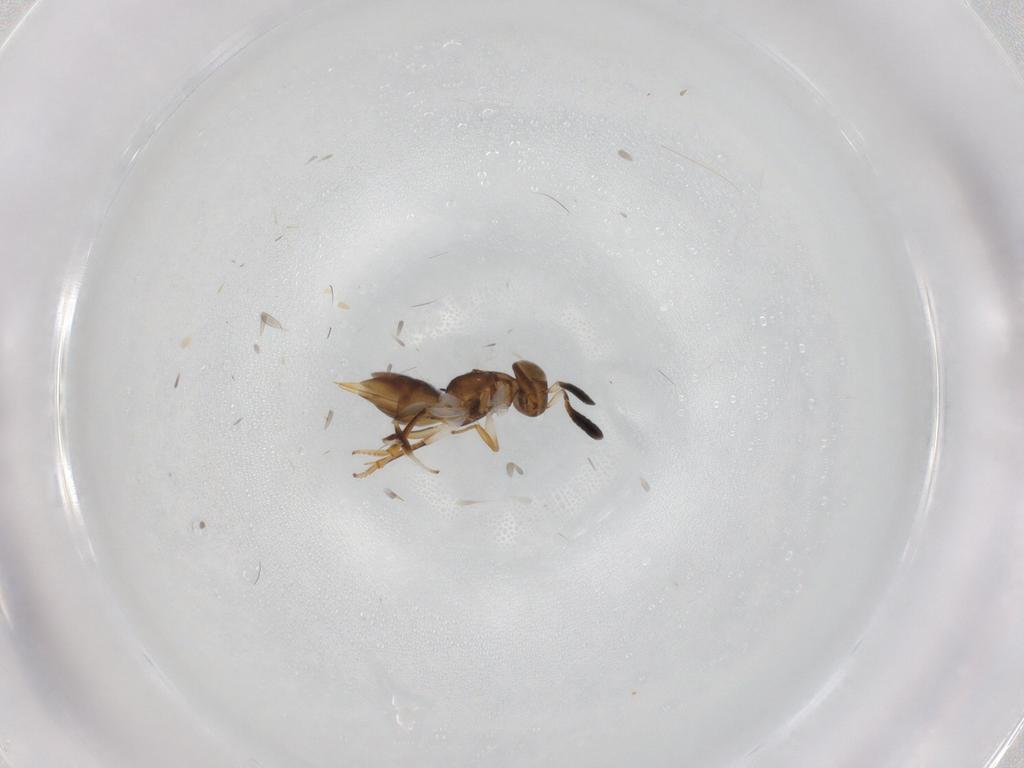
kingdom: Animalia
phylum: Arthropoda
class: Insecta
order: Hymenoptera
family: Encyrtidae
